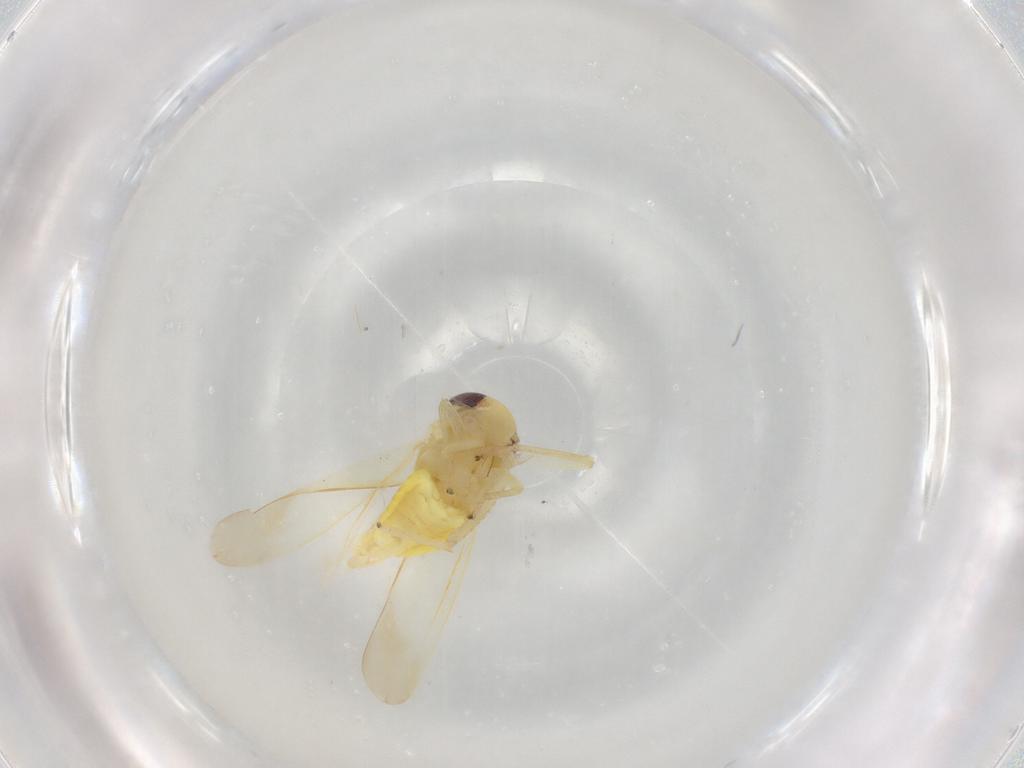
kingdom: Animalia
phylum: Arthropoda
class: Insecta
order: Hemiptera
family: Cicadellidae
